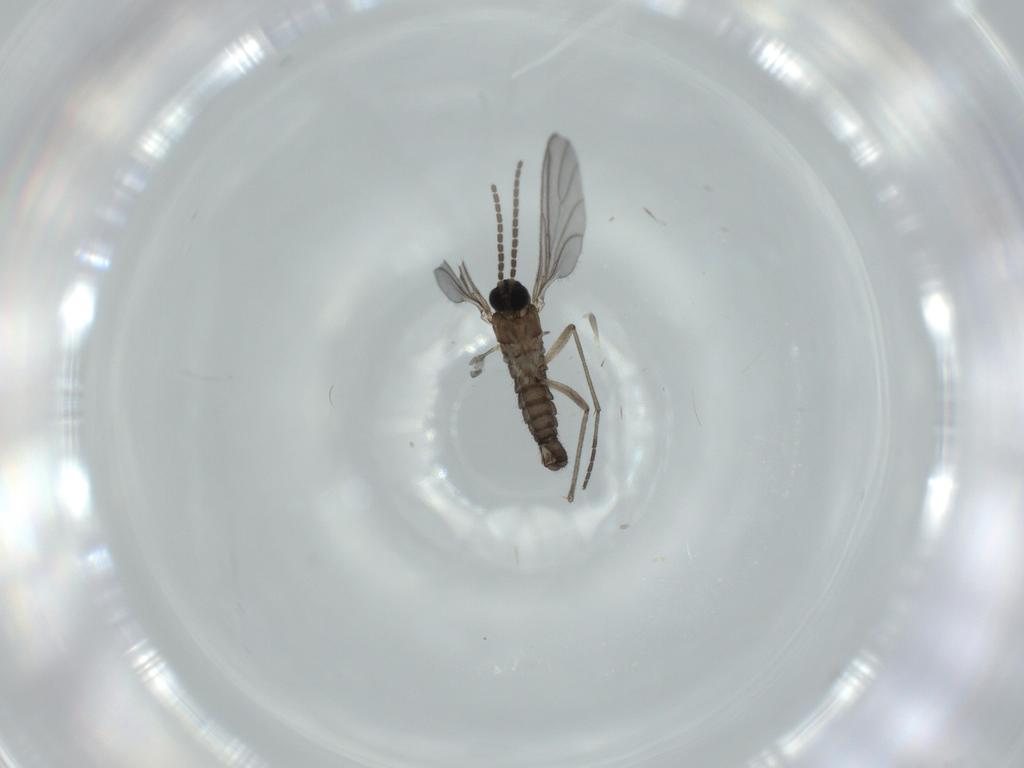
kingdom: Animalia
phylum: Arthropoda
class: Insecta
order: Diptera
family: Sciaridae
